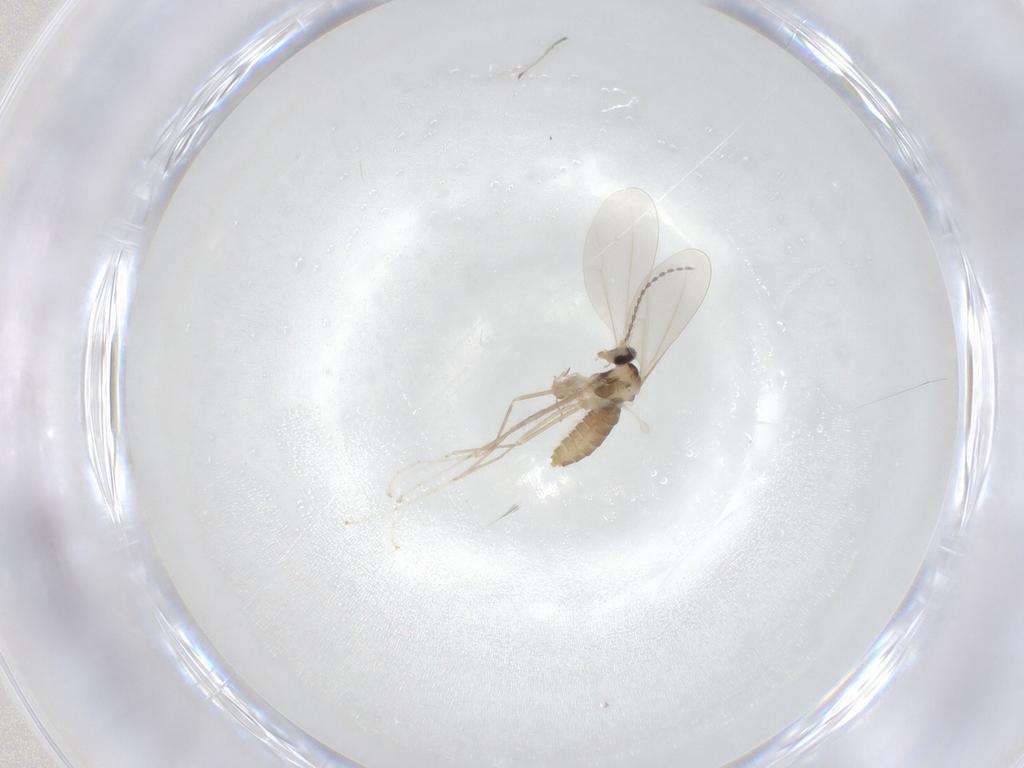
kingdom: Animalia
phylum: Arthropoda
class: Insecta
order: Diptera
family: Cecidomyiidae
